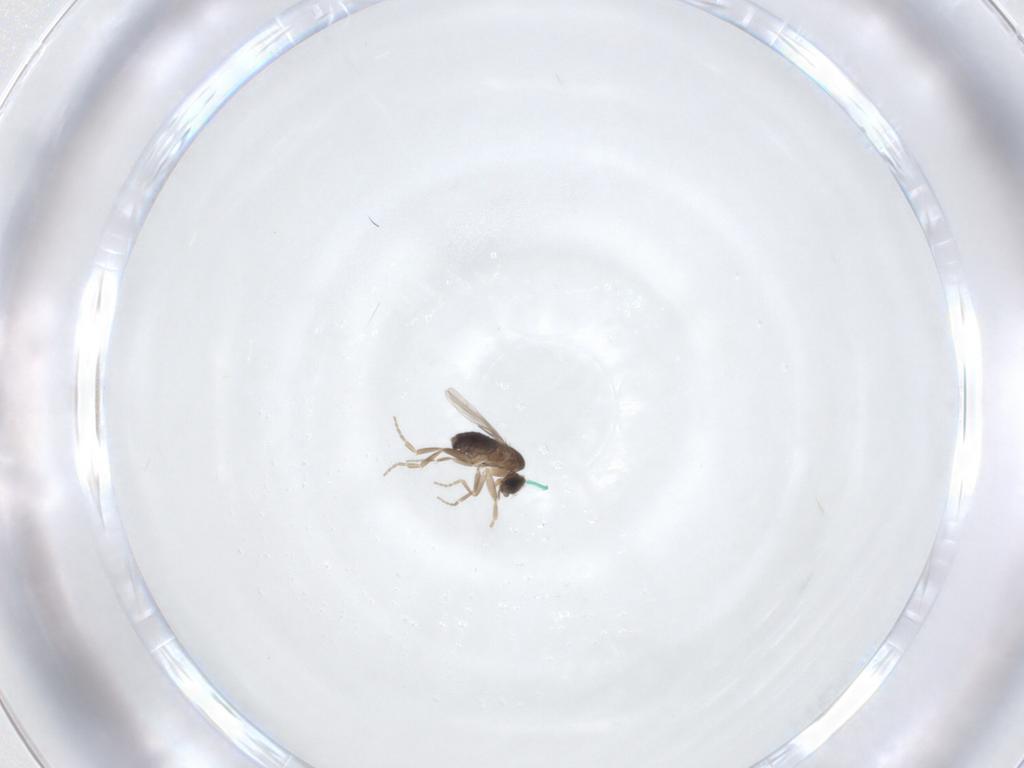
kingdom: Animalia
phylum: Arthropoda
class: Insecta
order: Diptera
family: Phoridae
